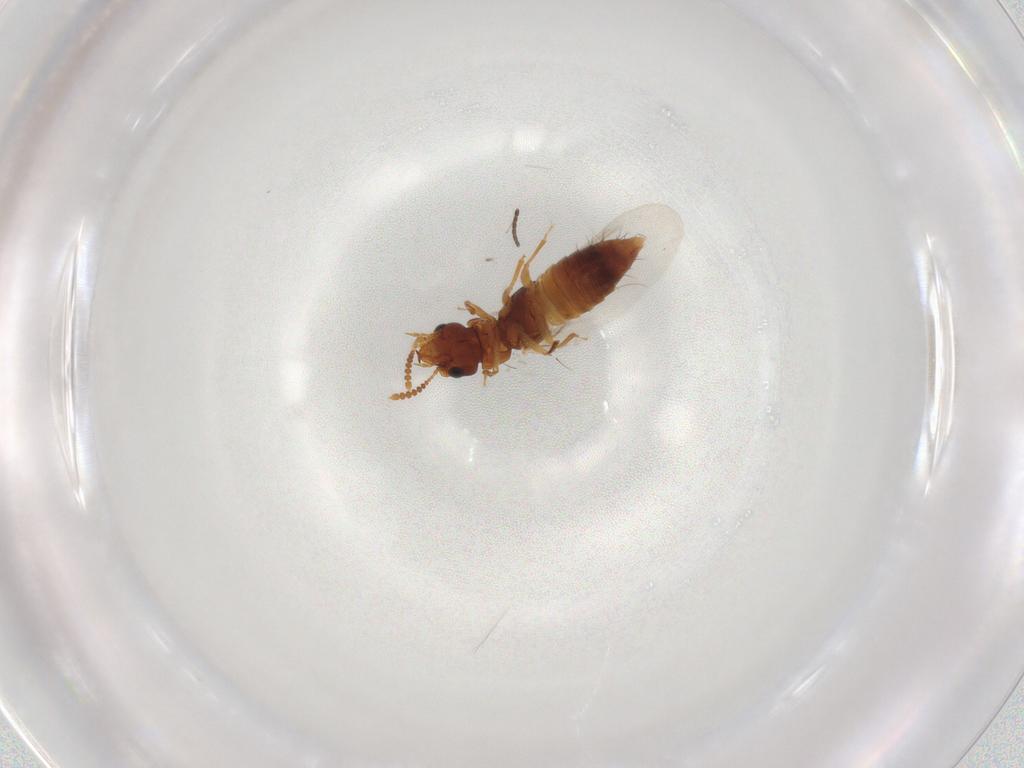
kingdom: Animalia
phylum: Arthropoda
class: Insecta
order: Coleoptera
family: Staphylinidae
